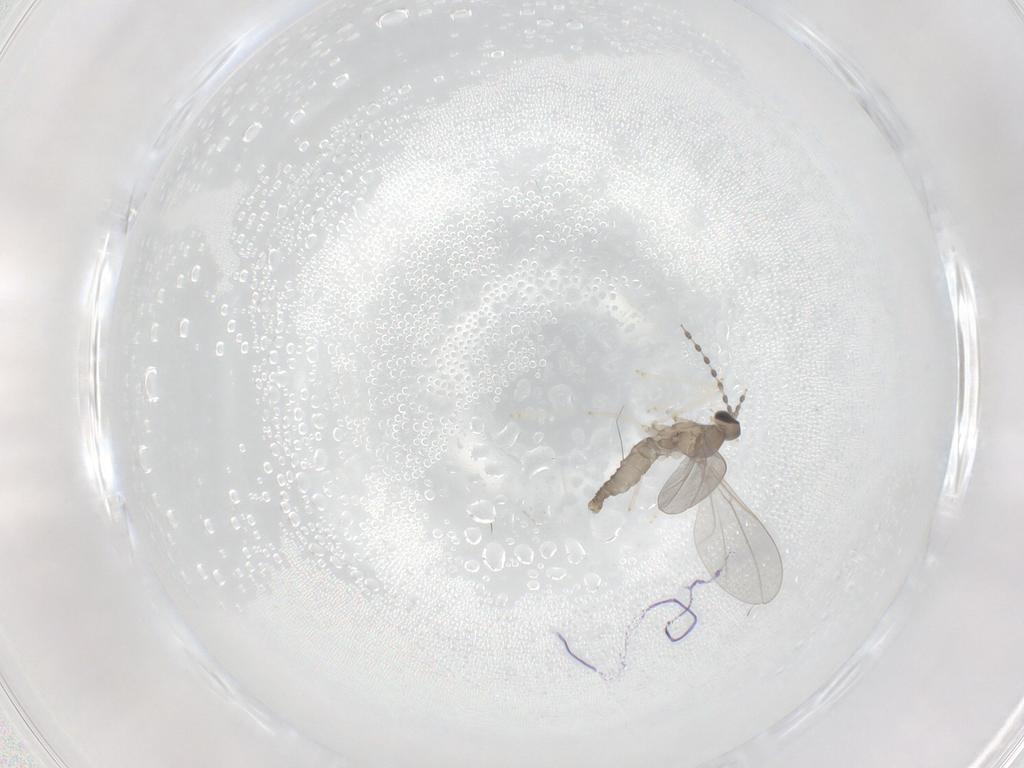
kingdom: Animalia
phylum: Arthropoda
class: Insecta
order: Diptera
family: Cecidomyiidae
